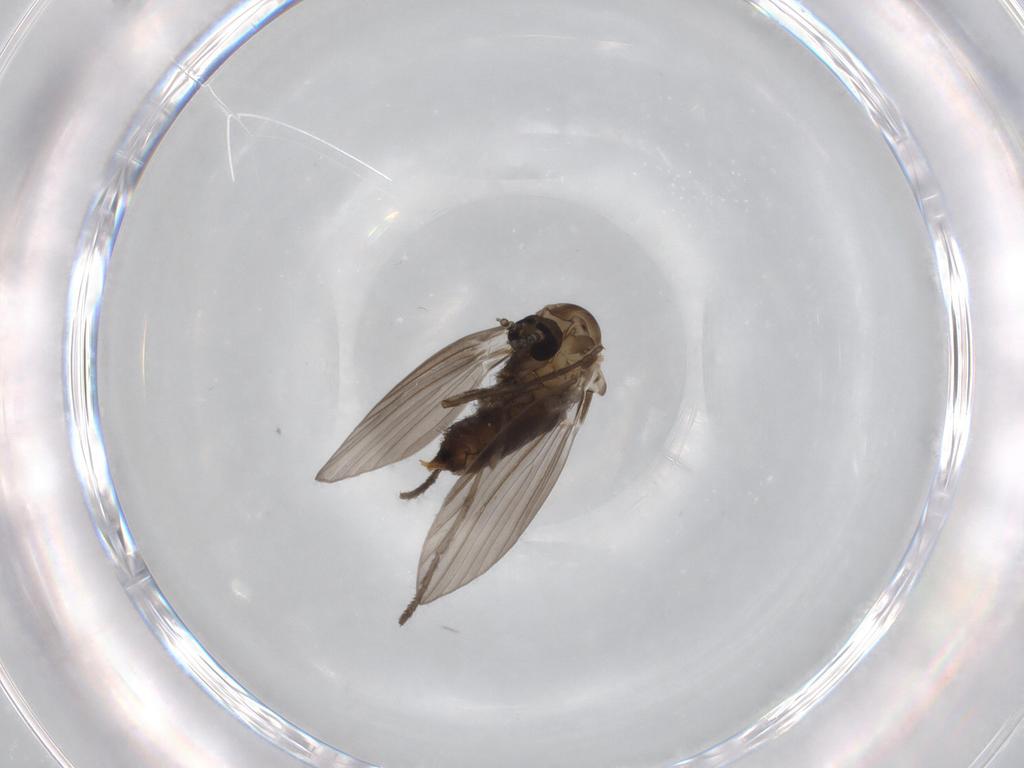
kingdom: Animalia
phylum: Arthropoda
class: Insecta
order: Diptera
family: Psychodidae
